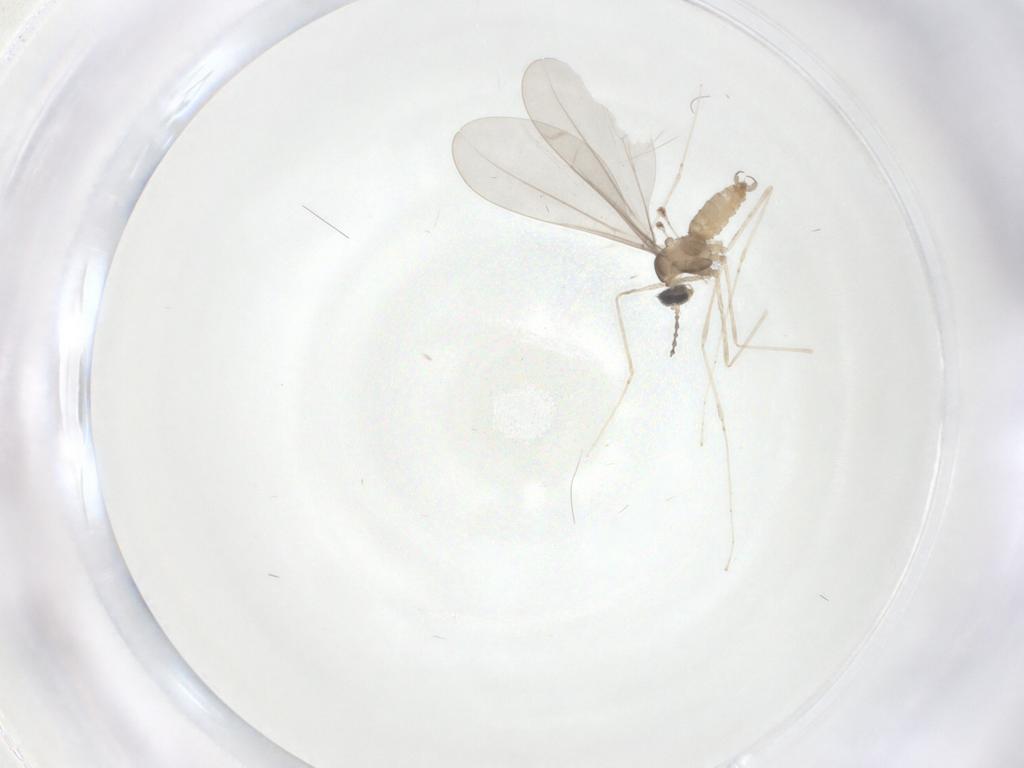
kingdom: Animalia
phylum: Arthropoda
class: Insecta
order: Diptera
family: Cecidomyiidae
